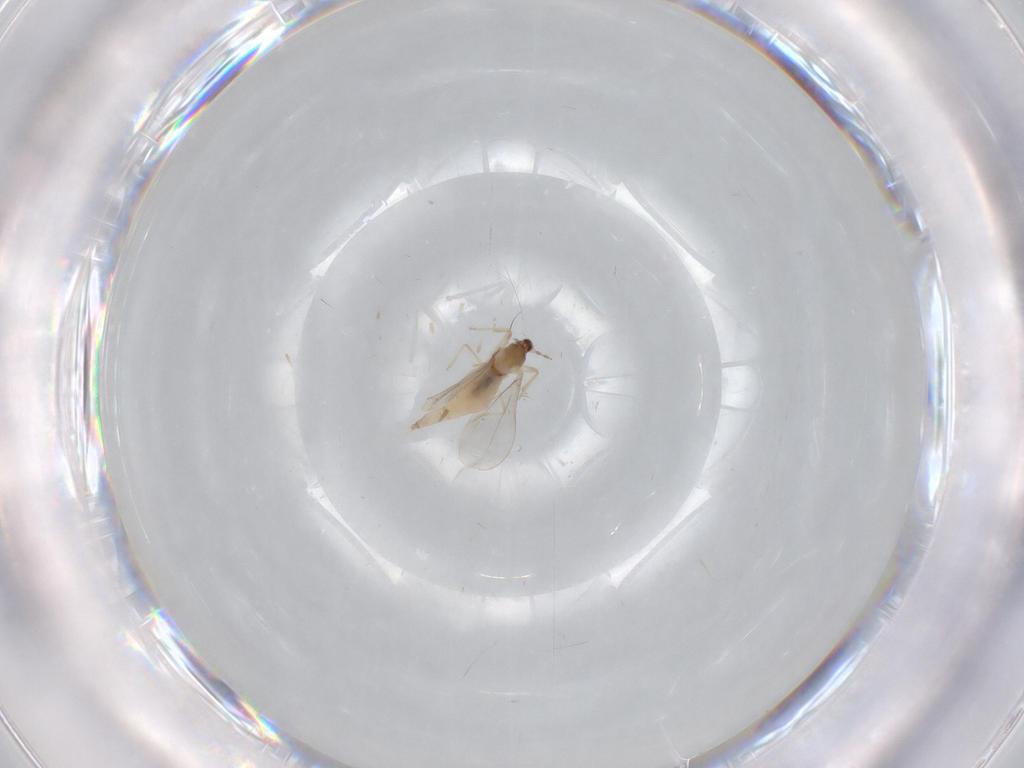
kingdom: Animalia
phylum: Arthropoda
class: Insecta
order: Diptera
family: Cecidomyiidae
